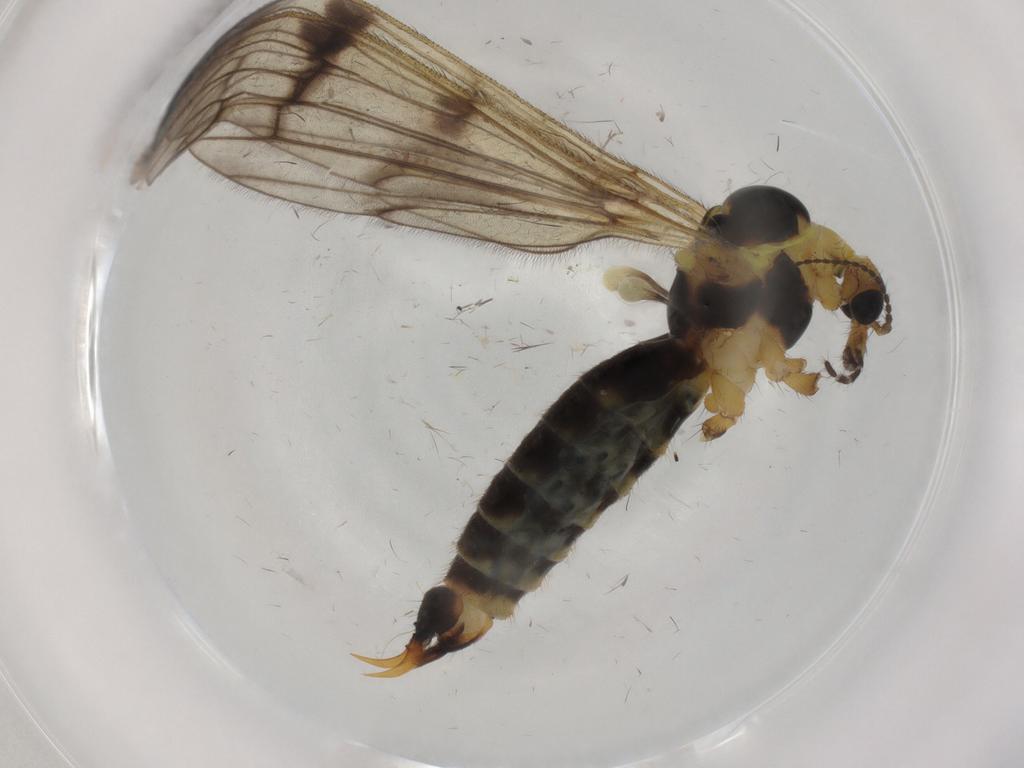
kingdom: Animalia
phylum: Arthropoda
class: Insecta
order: Diptera
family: Limoniidae
